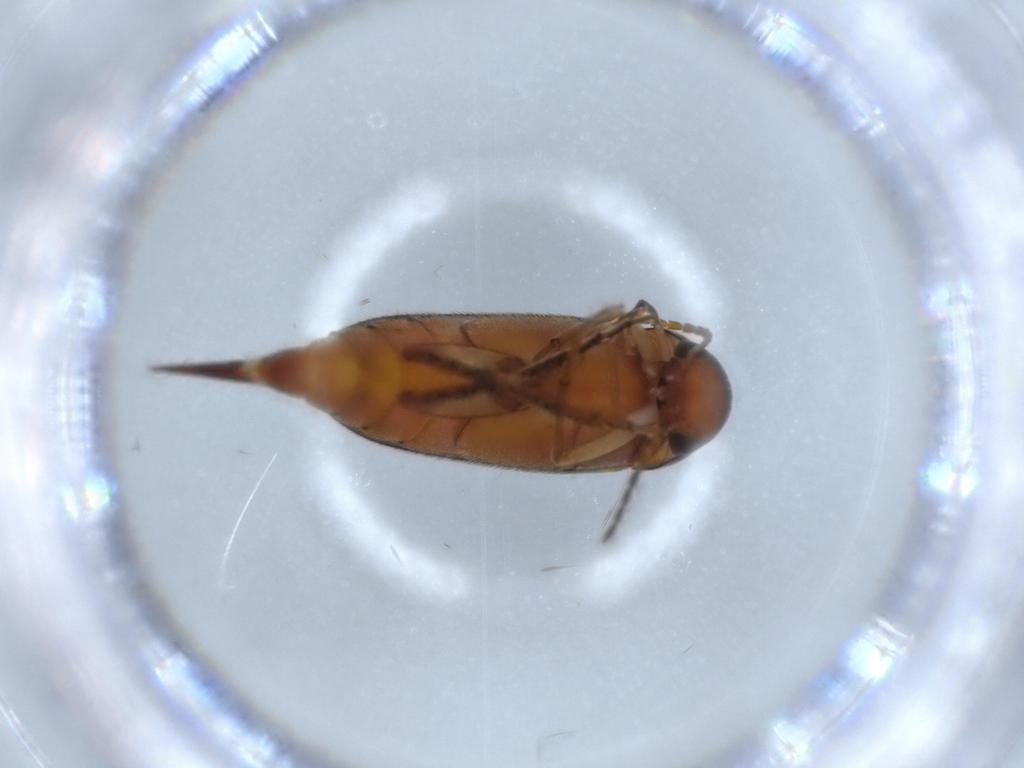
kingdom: Animalia
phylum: Arthropoda
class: Insecta
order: Coleoptera
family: Mordellidae
